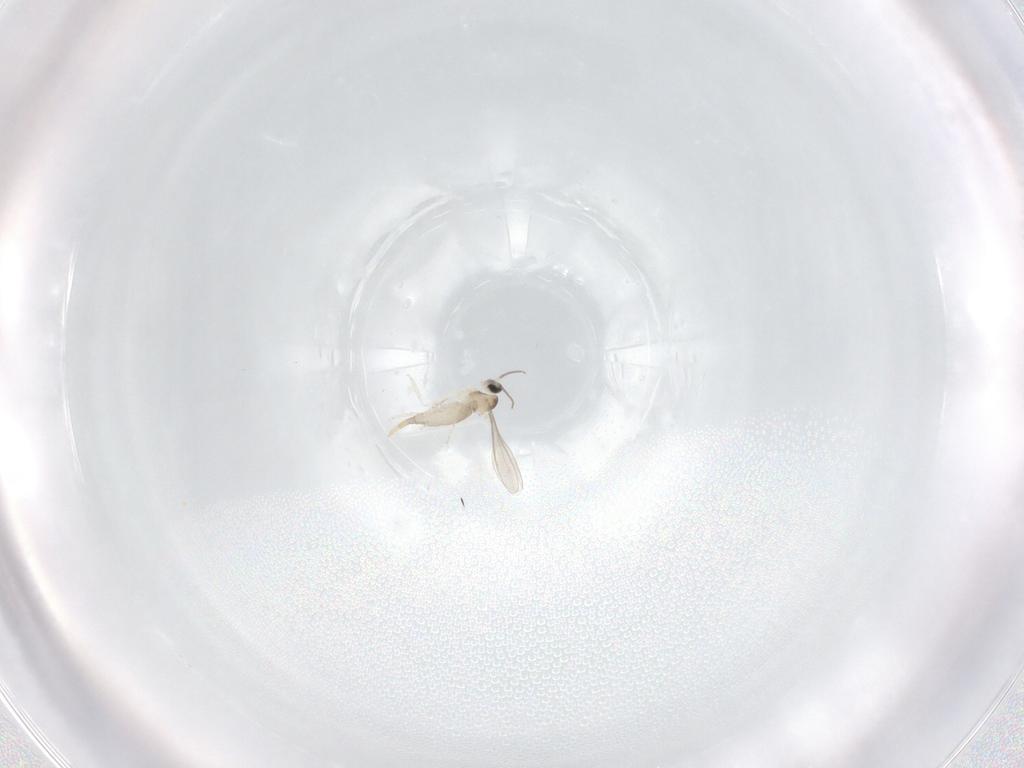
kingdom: Animalia
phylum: Arthropoda
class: Insecta
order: Diptera
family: Cecidomyiidae
